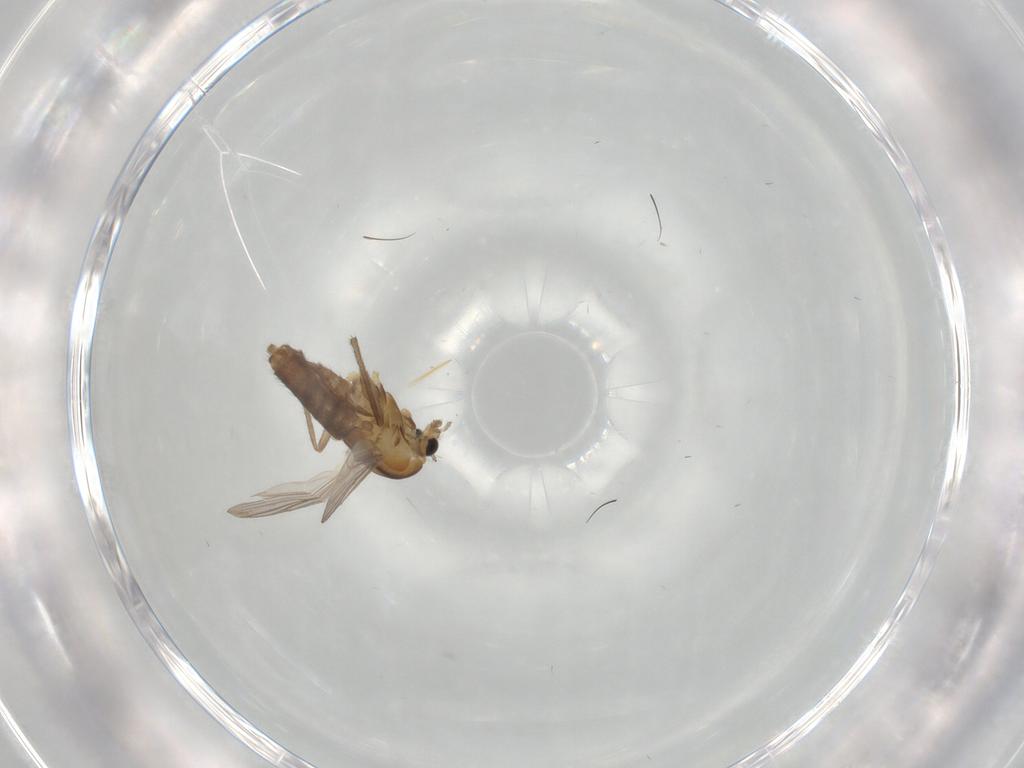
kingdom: Animalia
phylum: Arthropoda
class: Insecta
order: Diptera
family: Chironomidae
